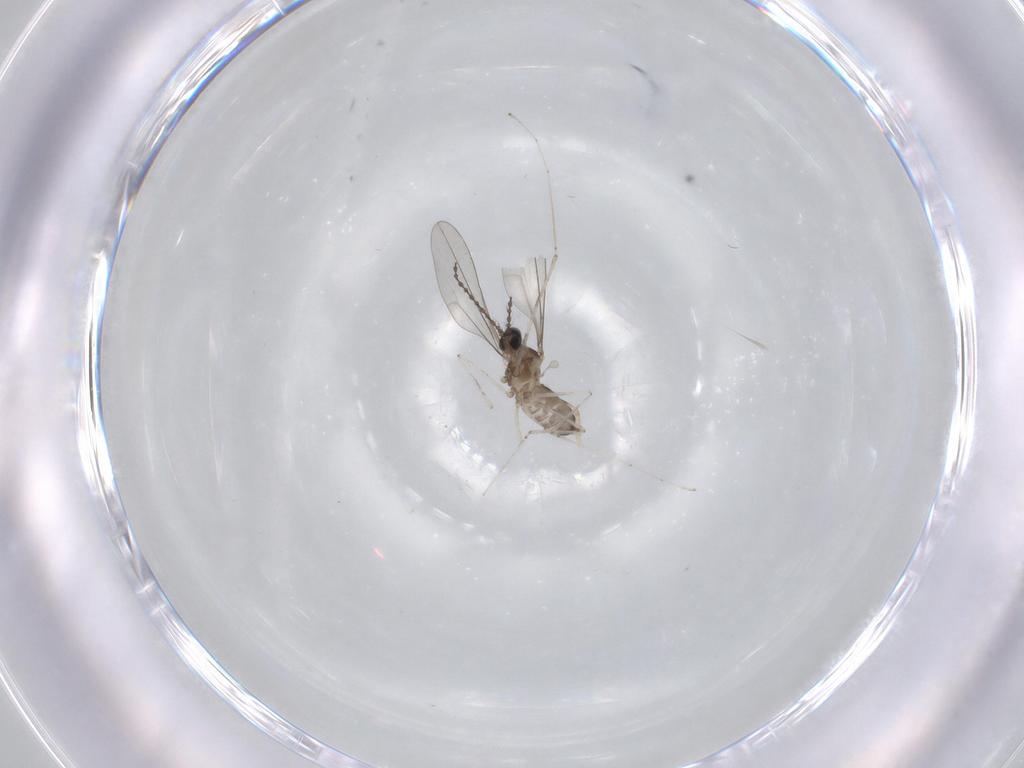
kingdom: Animalia
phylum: Arthropoda
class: Insecta
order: Diptera
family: Cecidomyiidae
